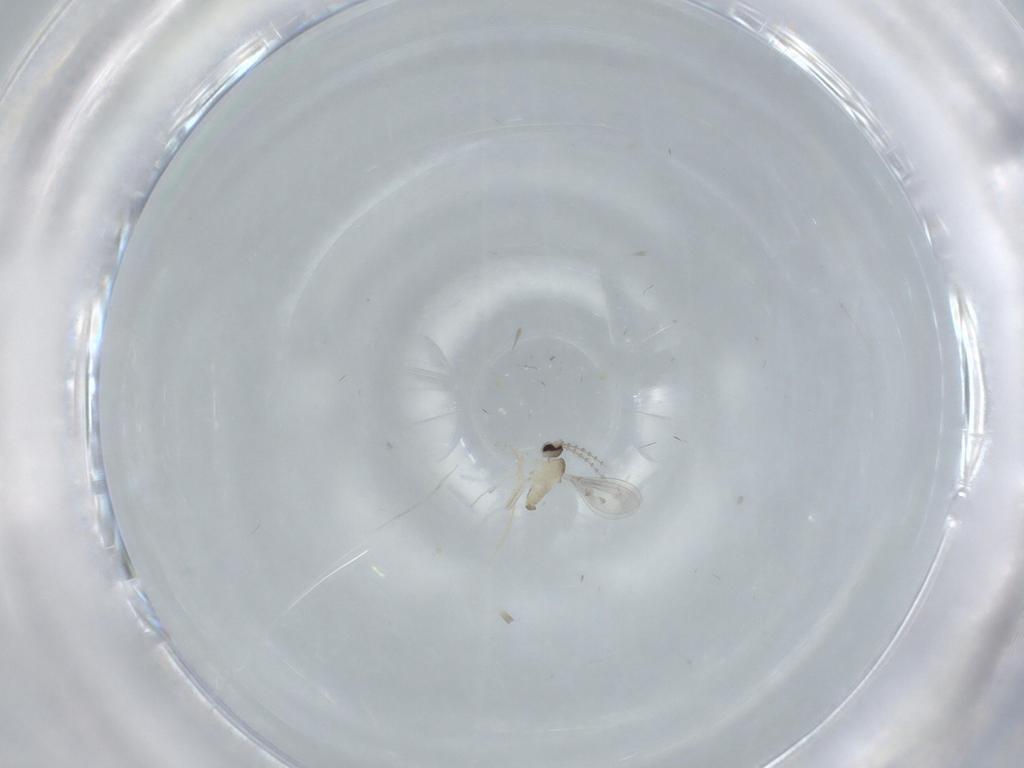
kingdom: Animalia
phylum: Arthropoda
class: Insecta
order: Diptera
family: Cecidomyiidae
